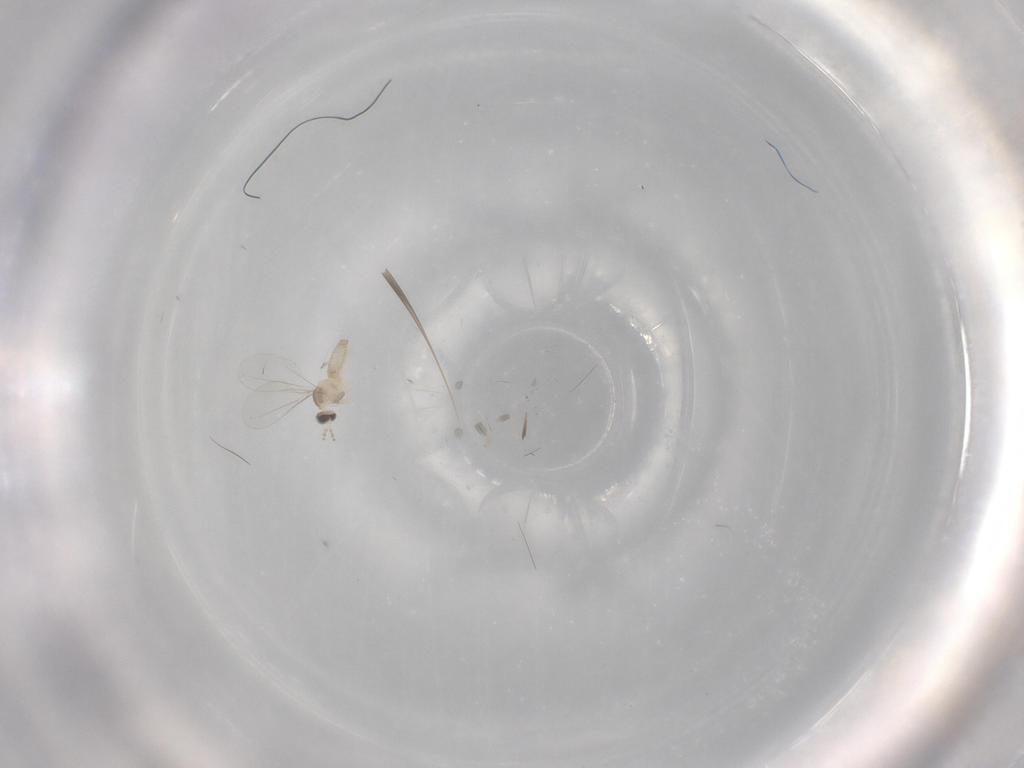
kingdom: Animalia
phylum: Arthropoda
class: Insecta
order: Diptera
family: Cecidomyiidae
